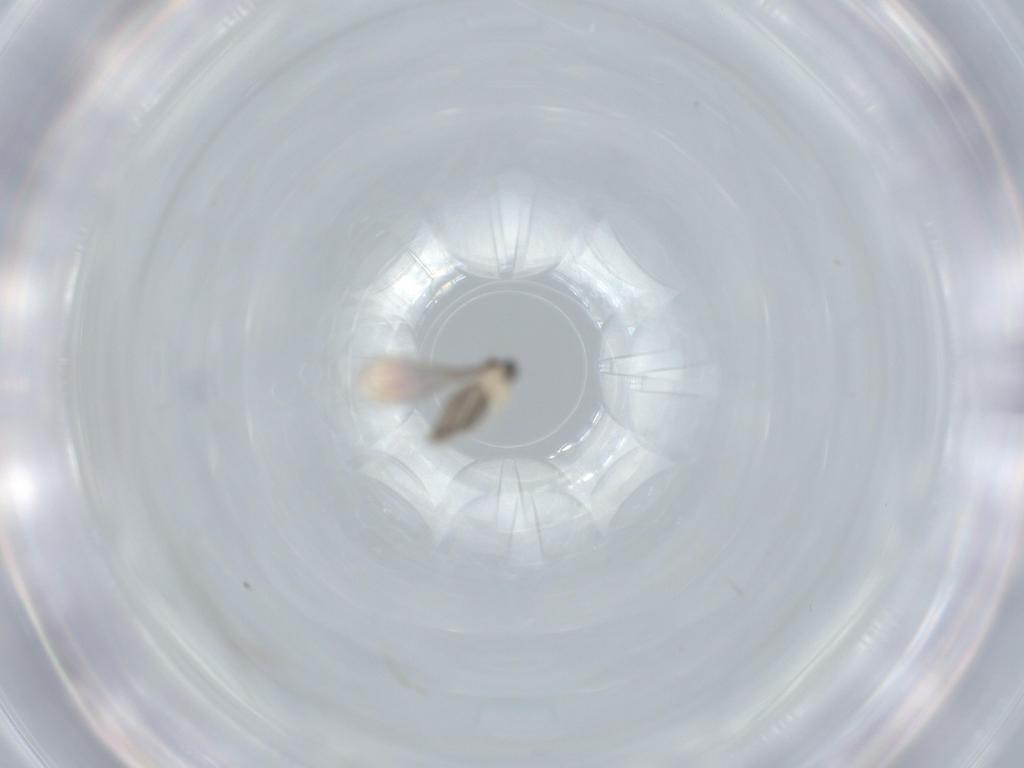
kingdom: Animalia
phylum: Arthropoda
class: Insecta
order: Diptera
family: Cecidomyiidae
